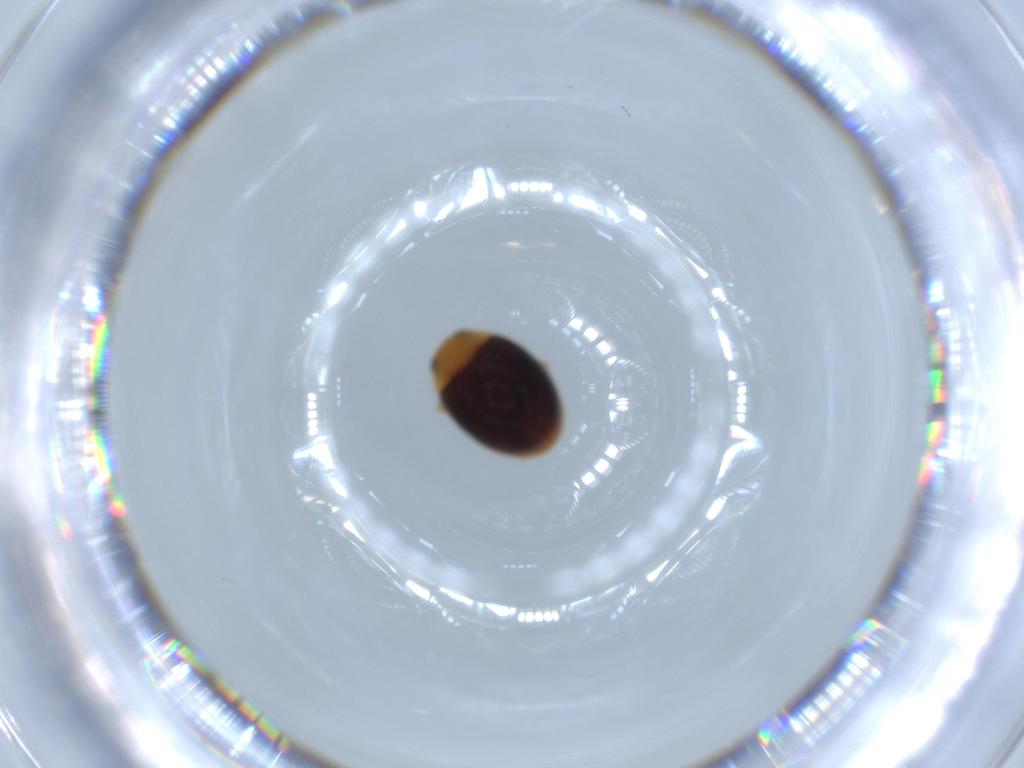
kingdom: Animalia
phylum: Arthropoda
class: Insecta
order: Coleoptera
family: Coccinellidae
